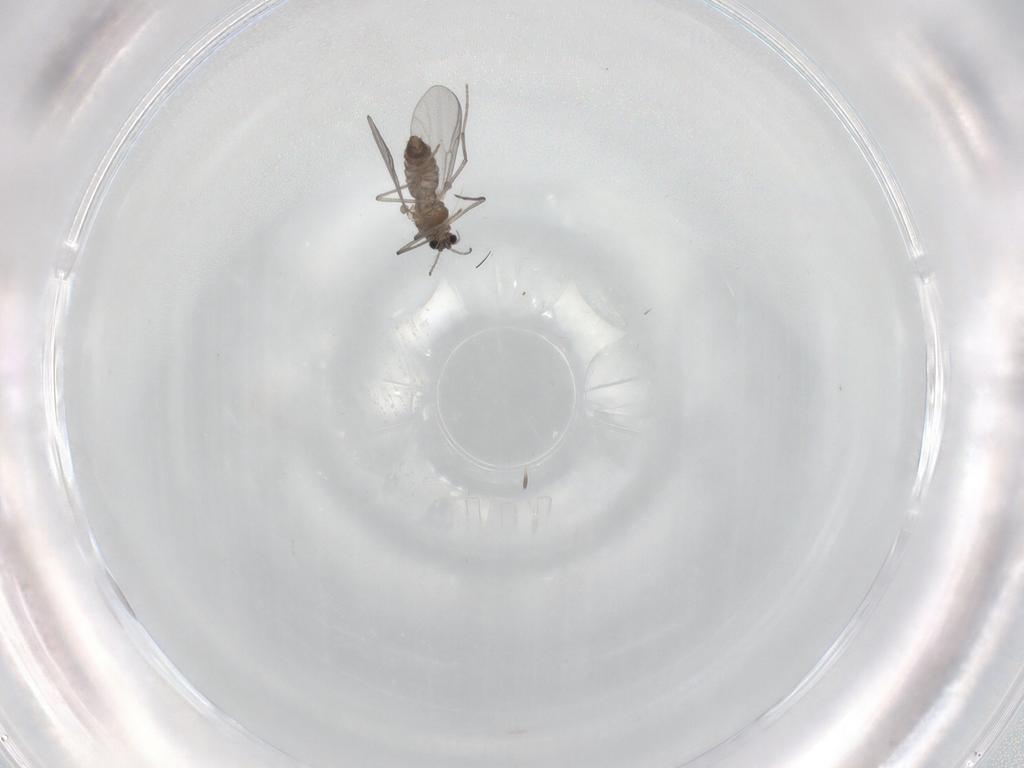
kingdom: Animalia
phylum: Arthropoda
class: Insecta
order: Diptera
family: Chironomidae
